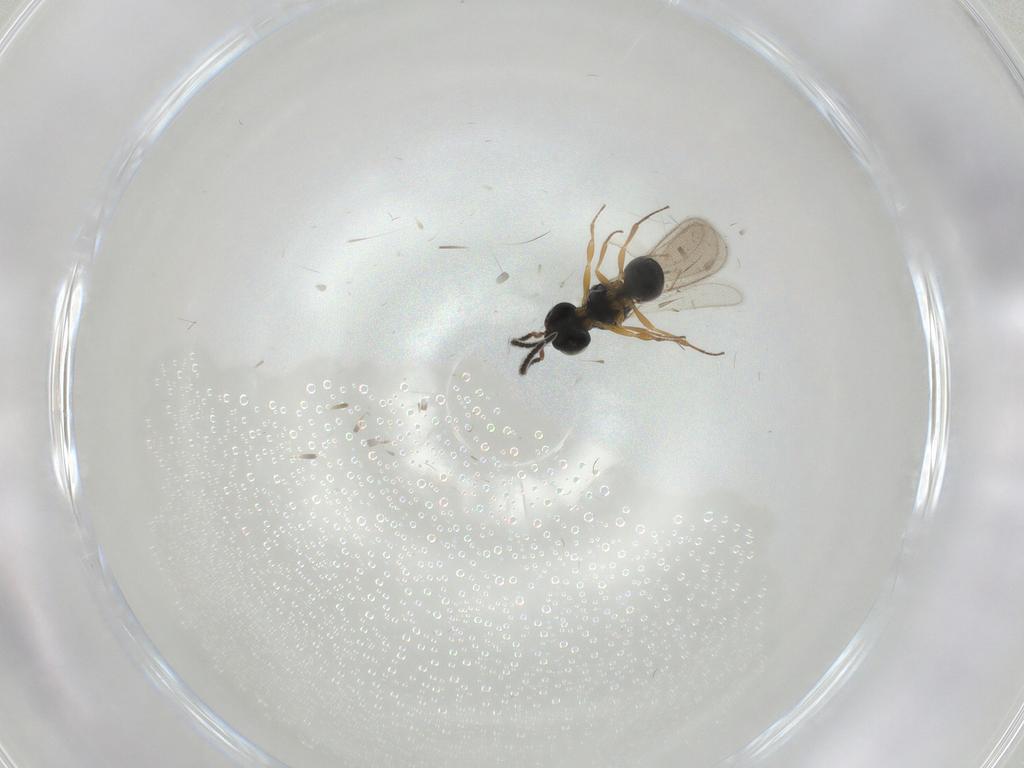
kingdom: Animalia
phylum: Arthropoda
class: Insecta
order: Hymenoptera
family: Scelionidae
